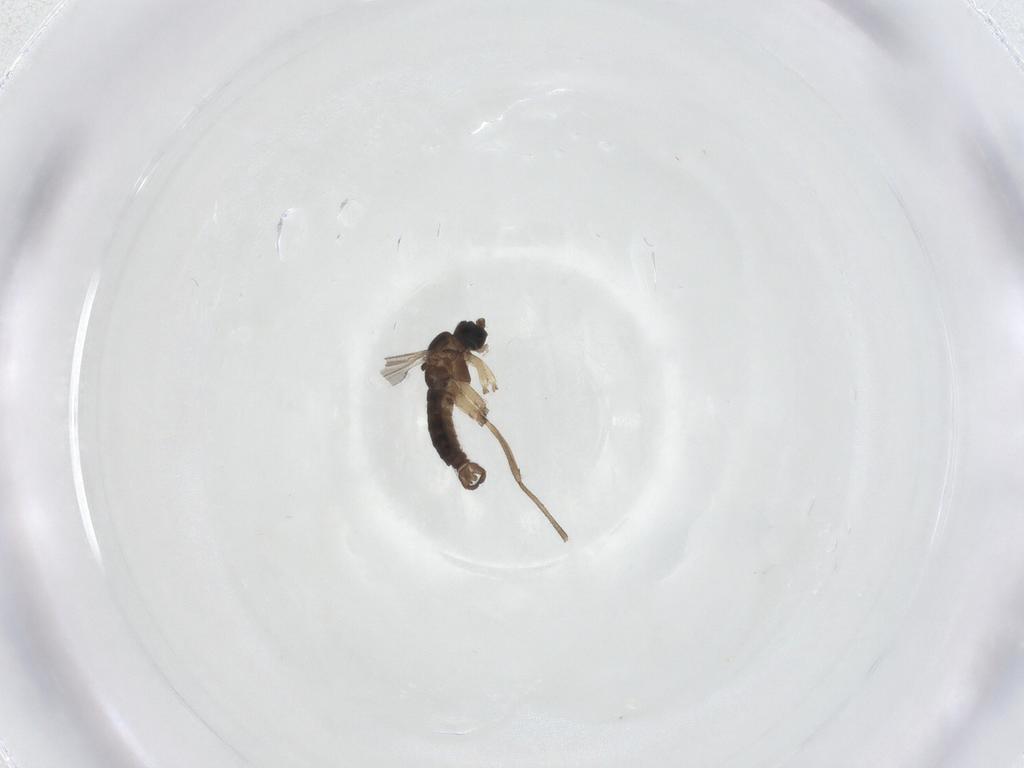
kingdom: Animalia
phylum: Arthropoda
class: Insecta
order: Diptera
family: Sciaridae
